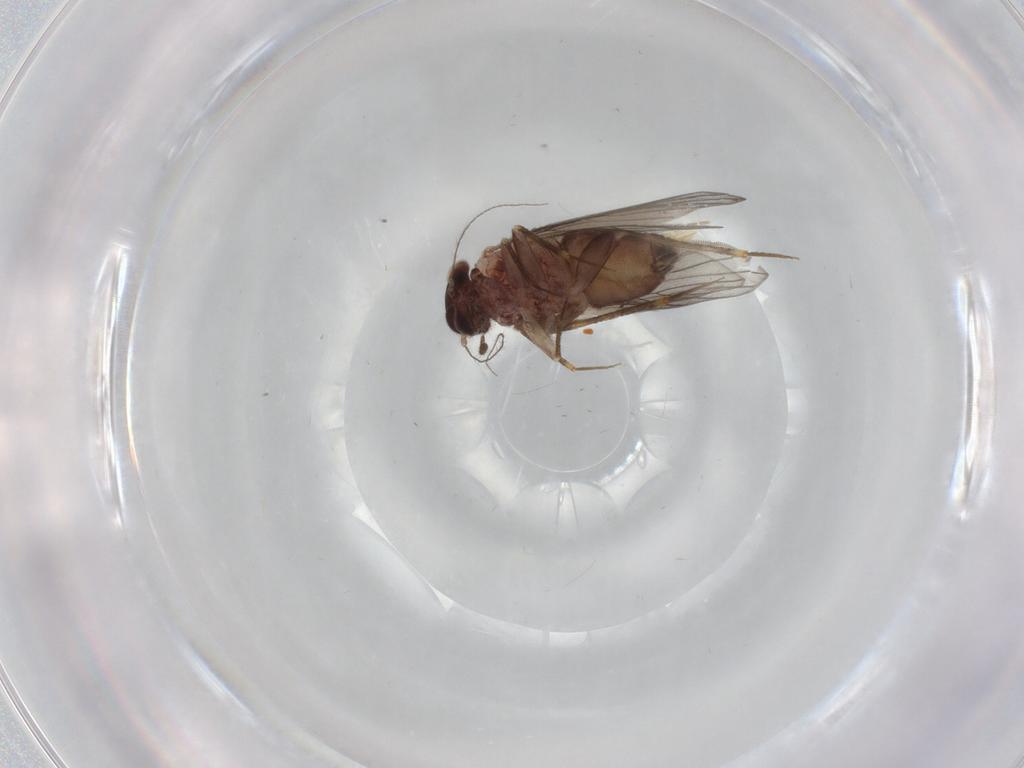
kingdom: Animalia
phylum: Arthropoda
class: Insecta
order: Psocodea
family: Lepidopsocidae
